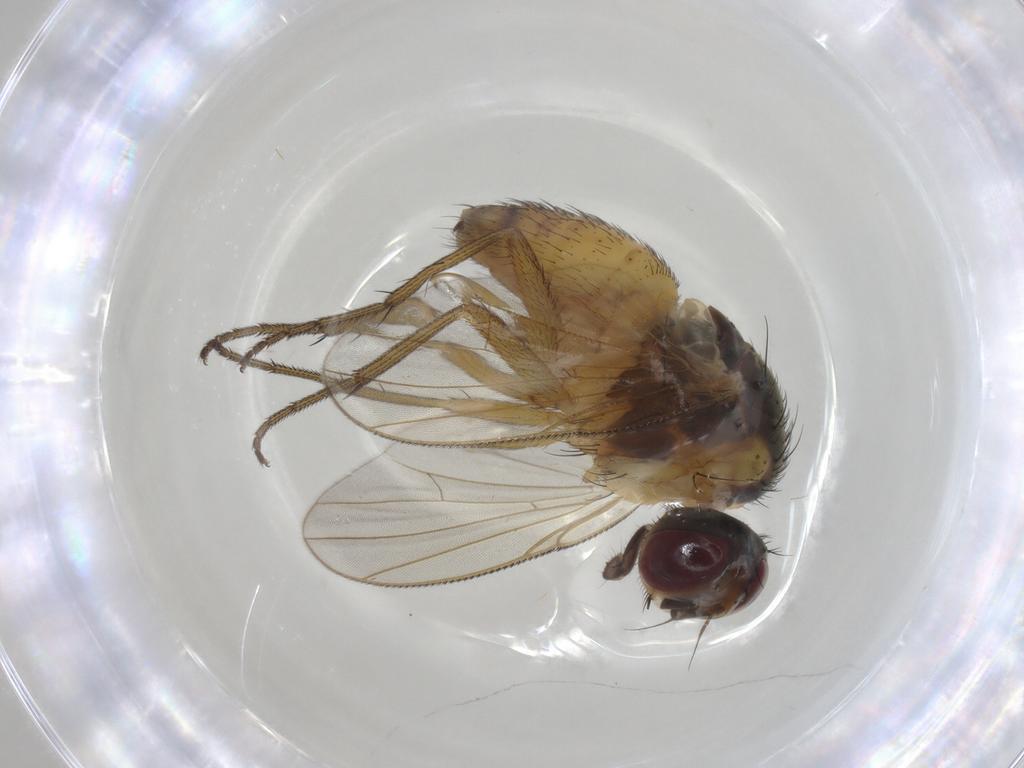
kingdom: Animalia
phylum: Arthropoda
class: Insecta
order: Diptera
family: Muscidae
